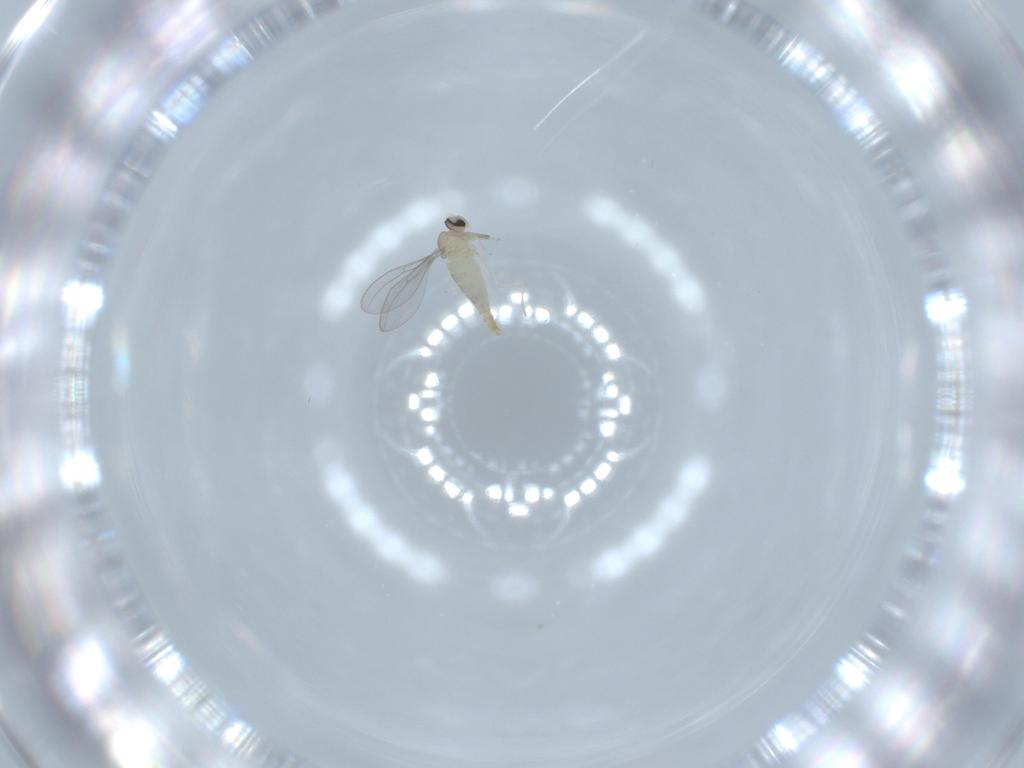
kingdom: Animalia
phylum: Arthropoda
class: Insecta
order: Diptera
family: Cecidomyiidae
